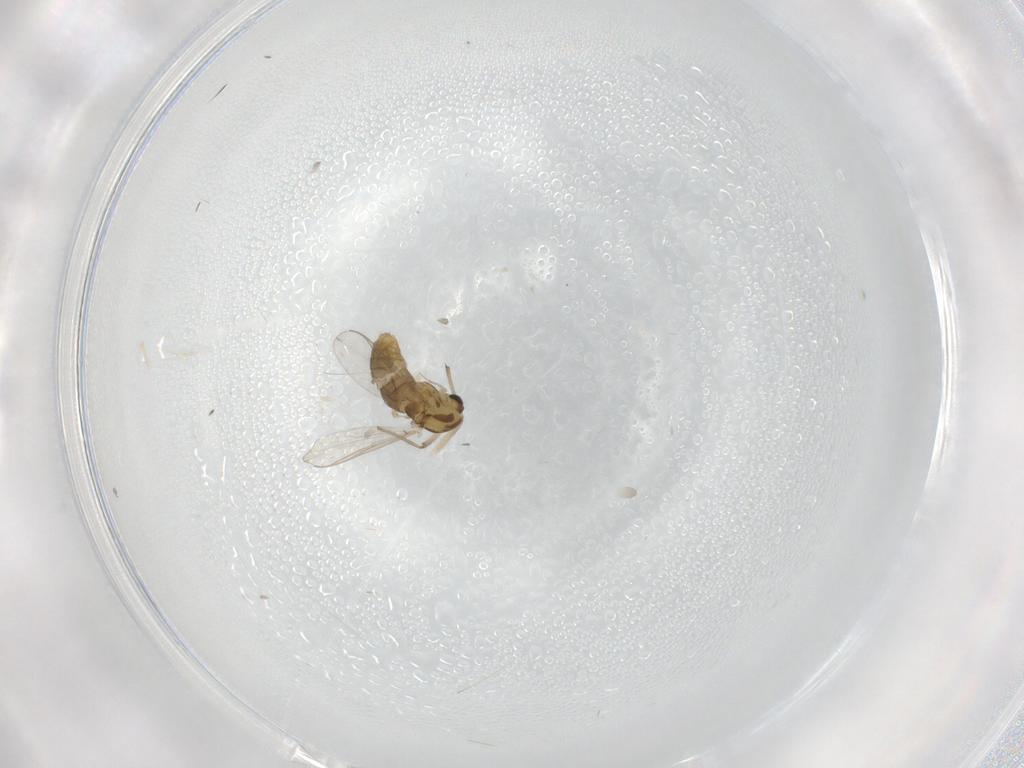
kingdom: Animalia
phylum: Arthropoda
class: Insecta
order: Diptera
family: Chironomidae
